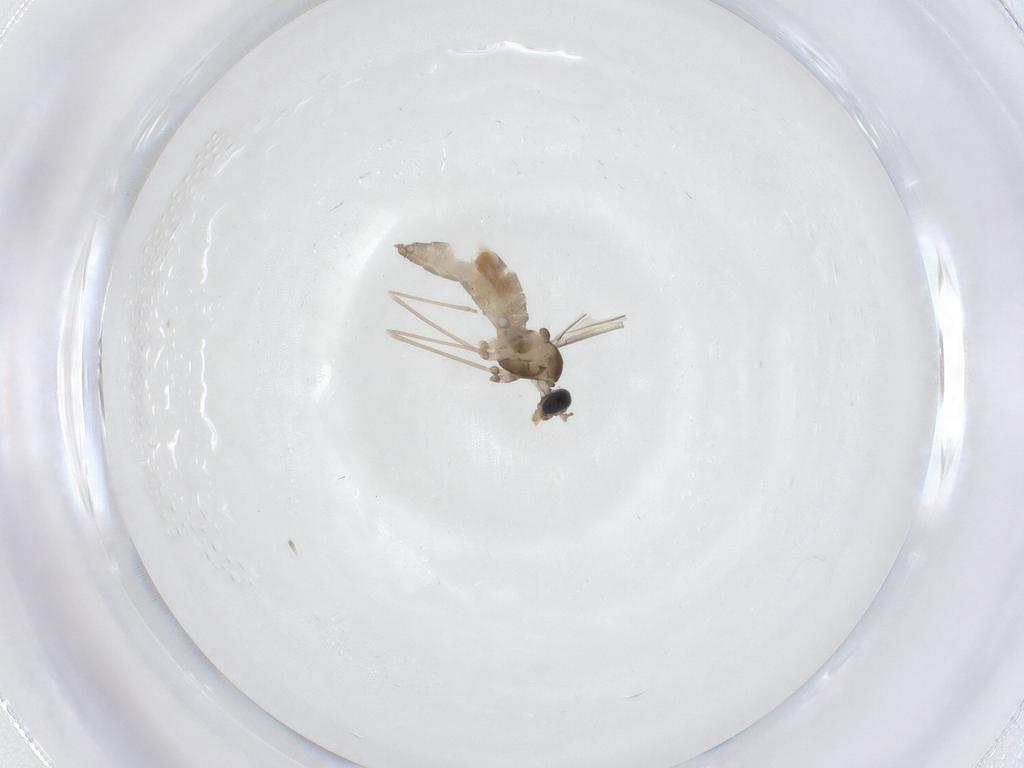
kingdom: Animalia
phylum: Arthropoda
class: Insecta
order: Diptera
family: Cecidomyiidae
